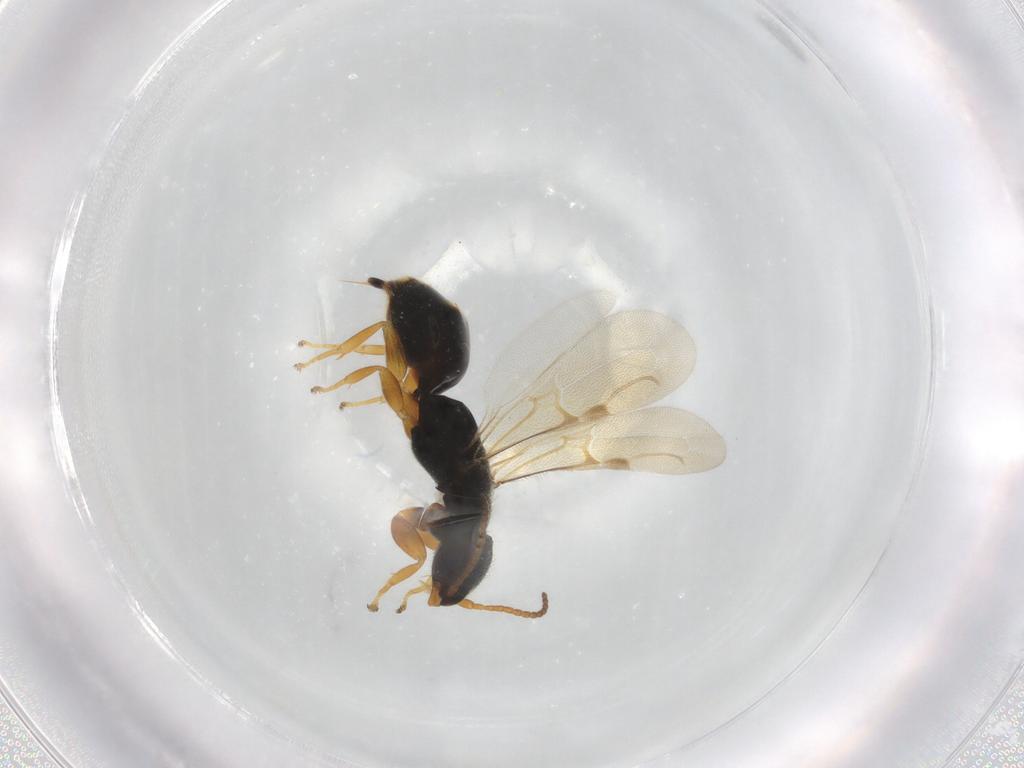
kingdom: Animalia
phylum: Arthropoda
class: Insecta
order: Hymenoptera
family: Bethylidae
